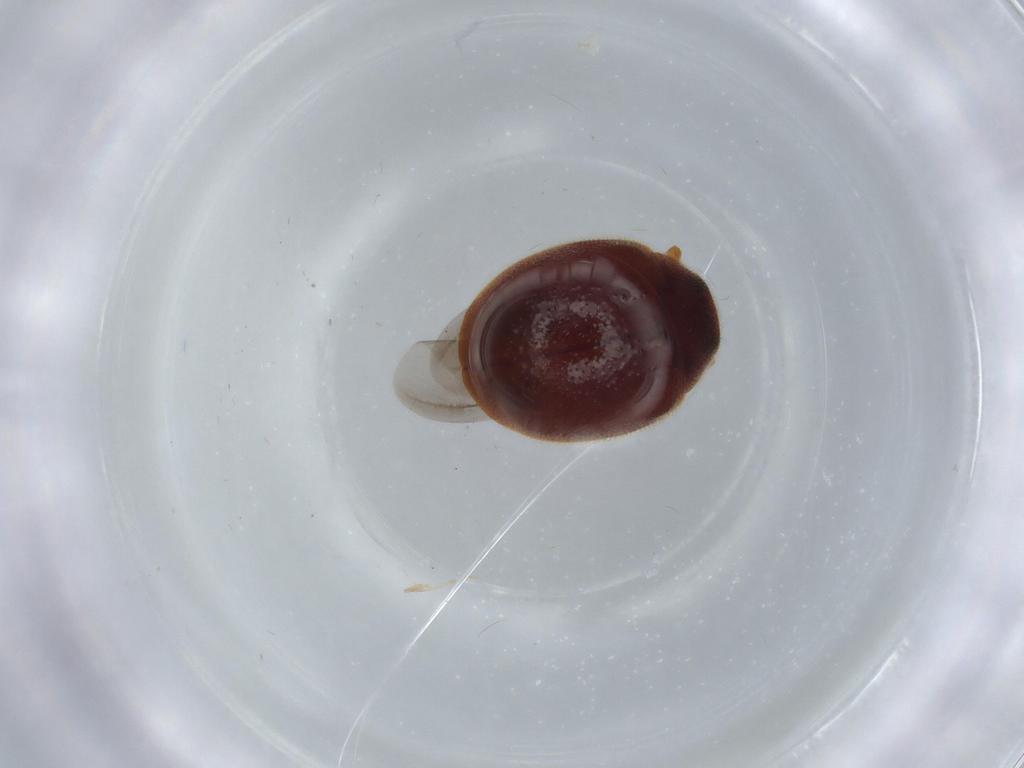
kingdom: Animalia
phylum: Arthropoda
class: Insecta
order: Coleoptera
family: Coccinellidae
